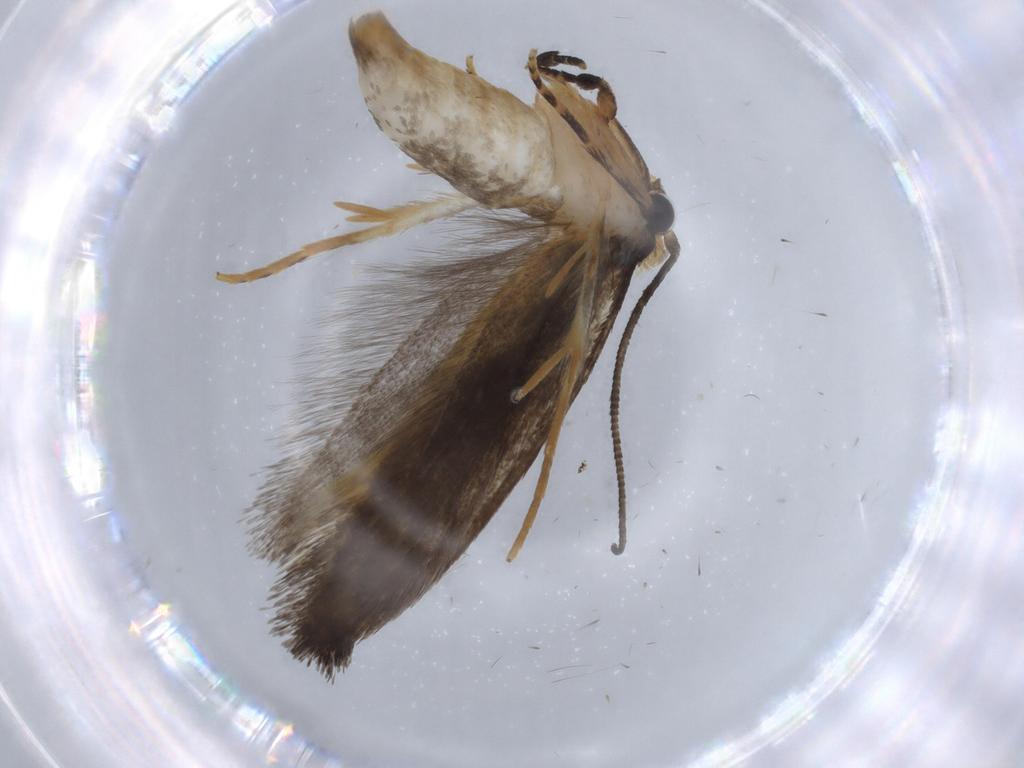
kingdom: Animalia
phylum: Arthropoda
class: Insecta
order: Lepidoptera
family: Tineidae
